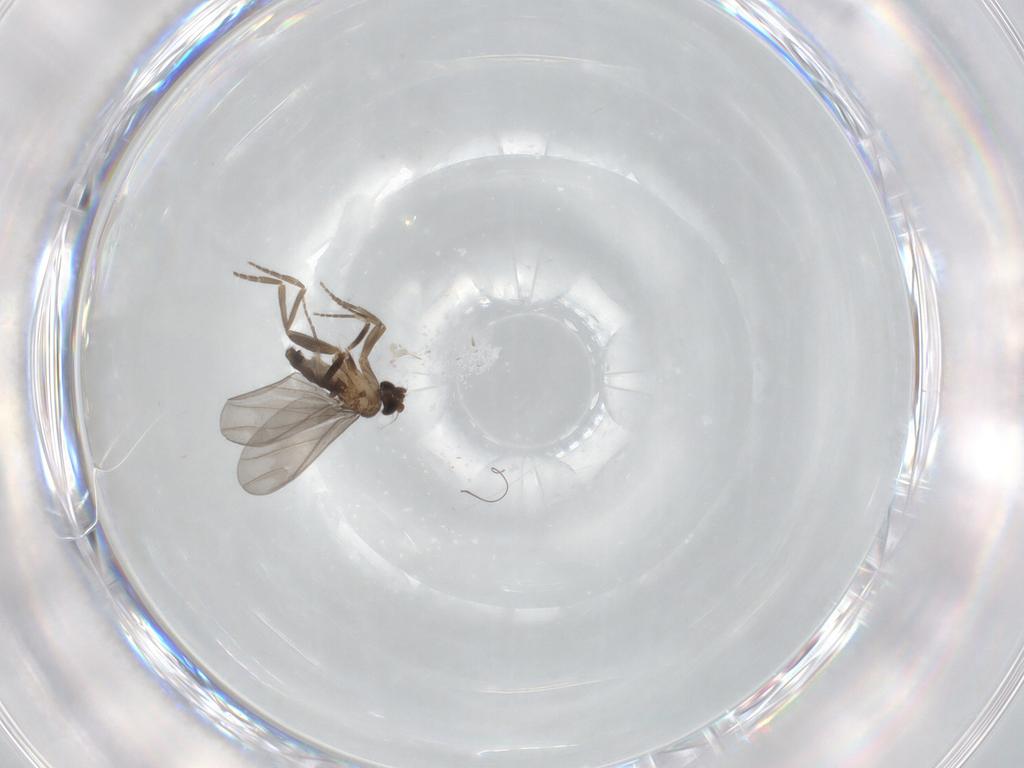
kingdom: Animalia
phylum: Arthropoda
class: Insecta
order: Diptera
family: Phoridae
